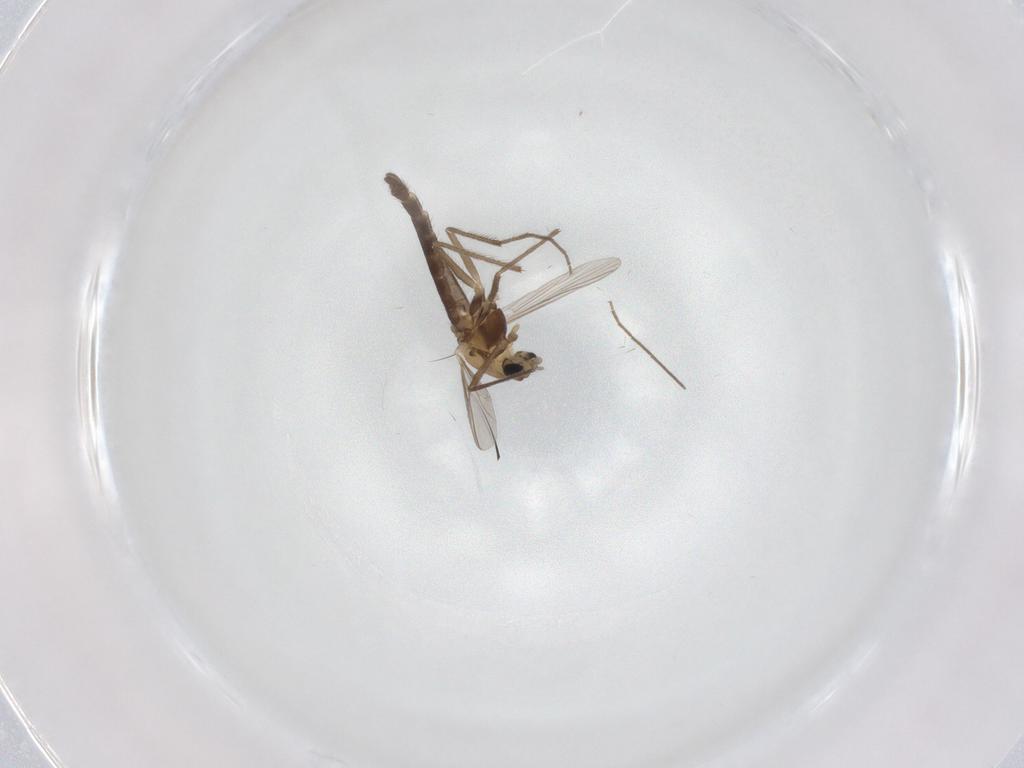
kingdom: Animalia
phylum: Arthropoda
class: Insecta
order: Diptera
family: Chironomidae
